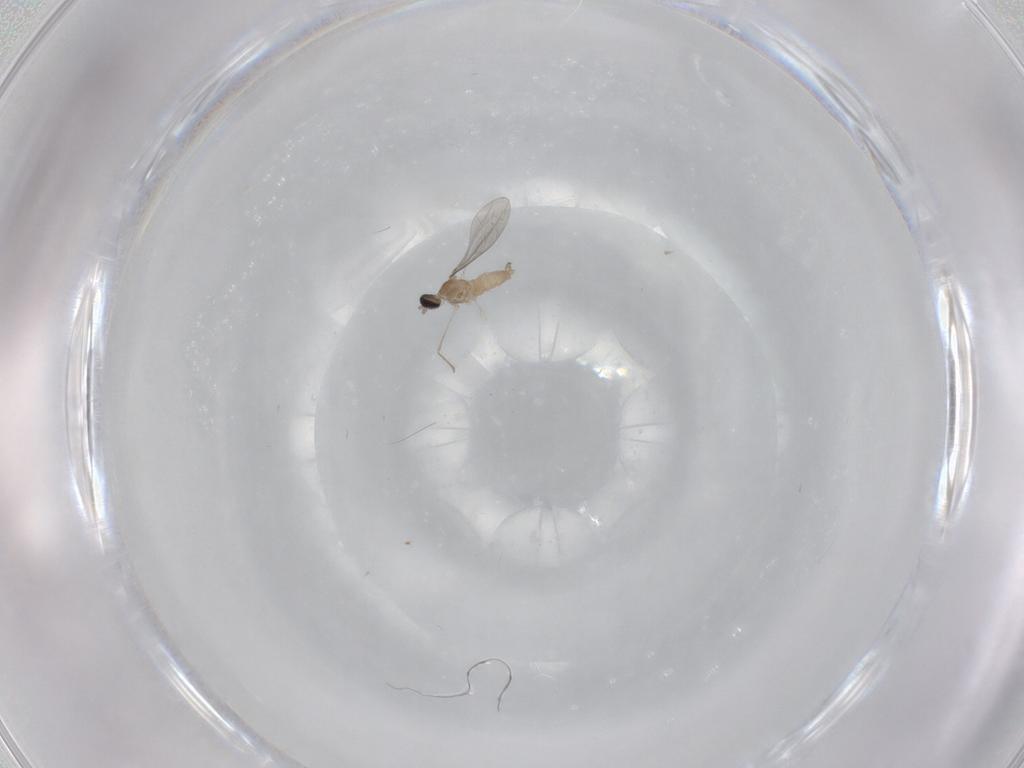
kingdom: Animalia
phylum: Arthropoda
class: Insecta
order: Diptera
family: Cecidomyiidae
